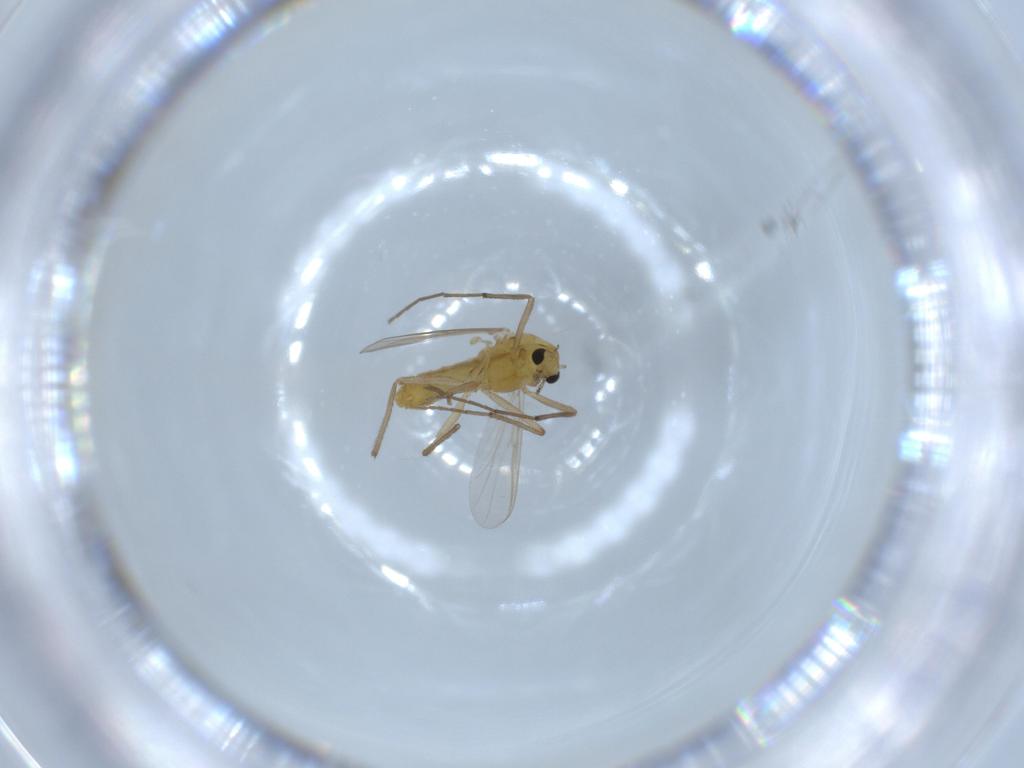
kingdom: Animalia
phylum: Arthropoda
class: Insecta
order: Diptera
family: Chironomidae
